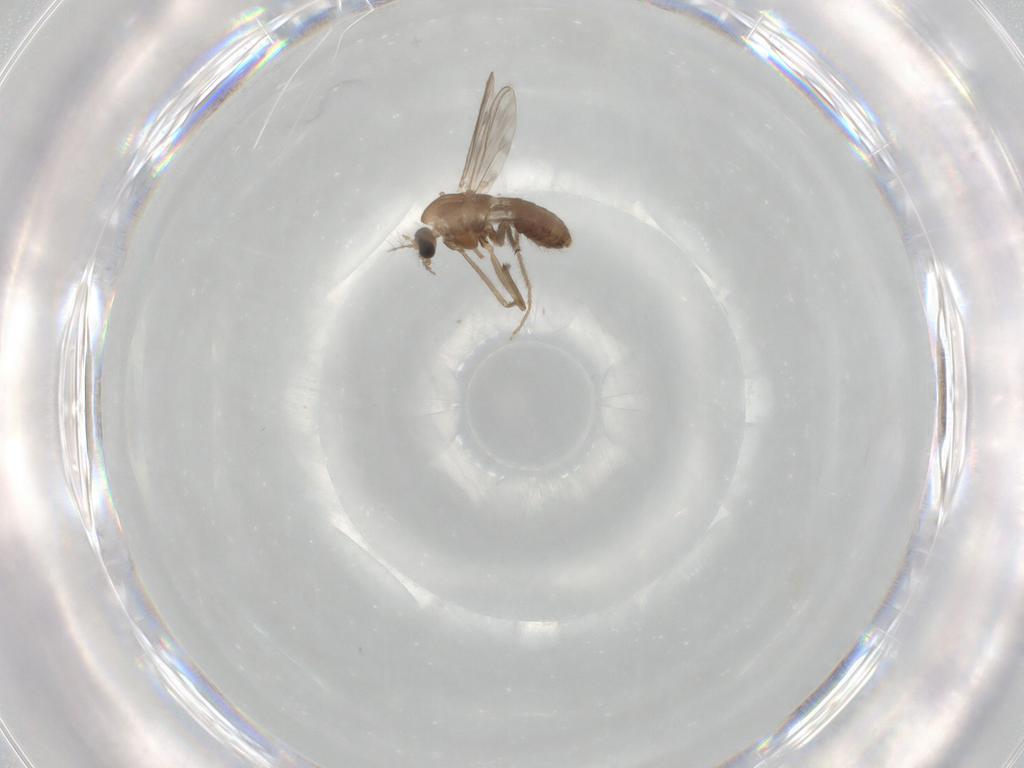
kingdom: Animalia
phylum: Arthropoda
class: Insecta
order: Diptera
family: Chironomidae
